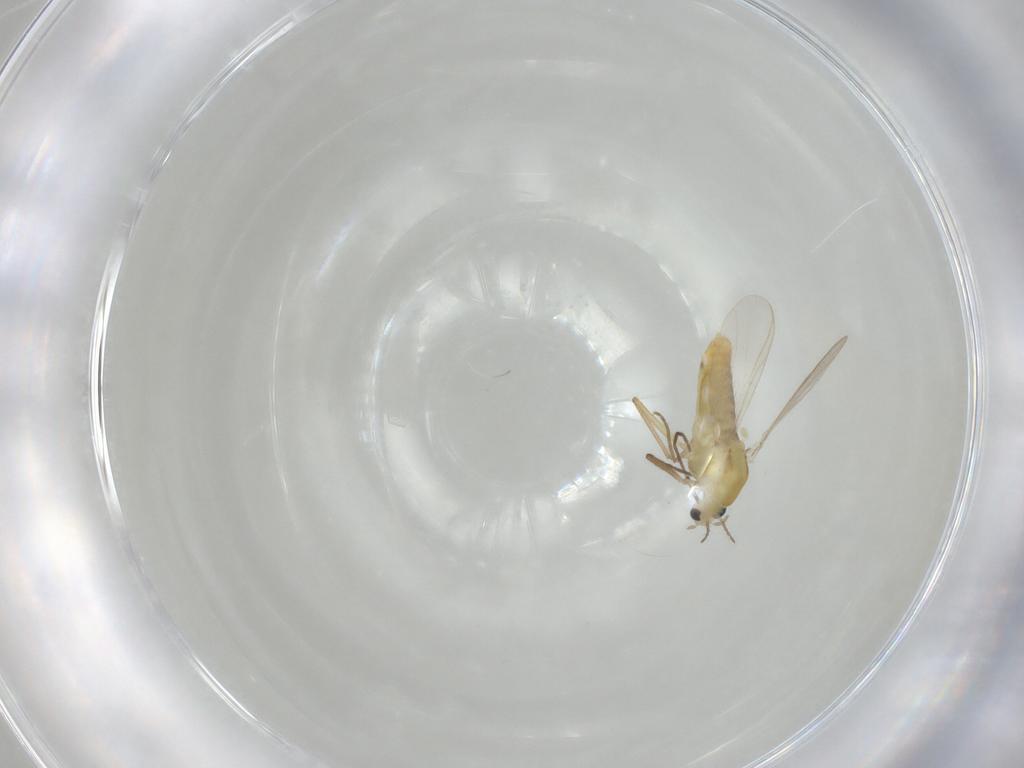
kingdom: Animalia
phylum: Arthropoda
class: Insecta
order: Diptera
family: Chironomidae
